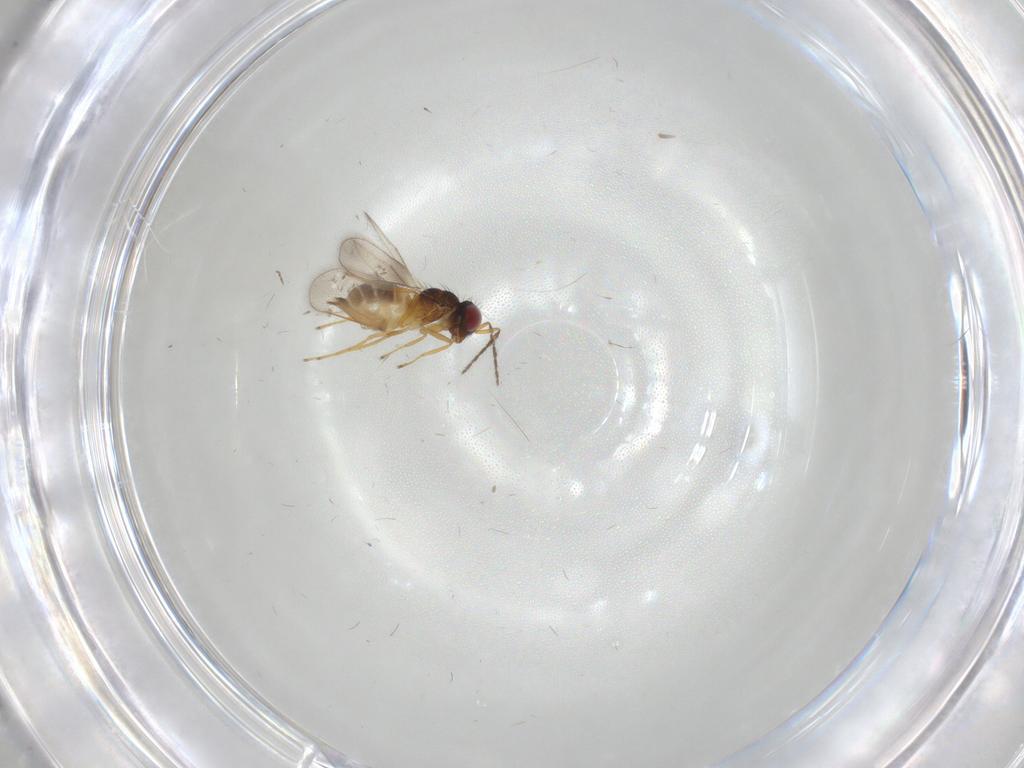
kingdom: Animalia
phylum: Arthropoda
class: Insecta
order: Hymenoptera
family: Eulophidae
